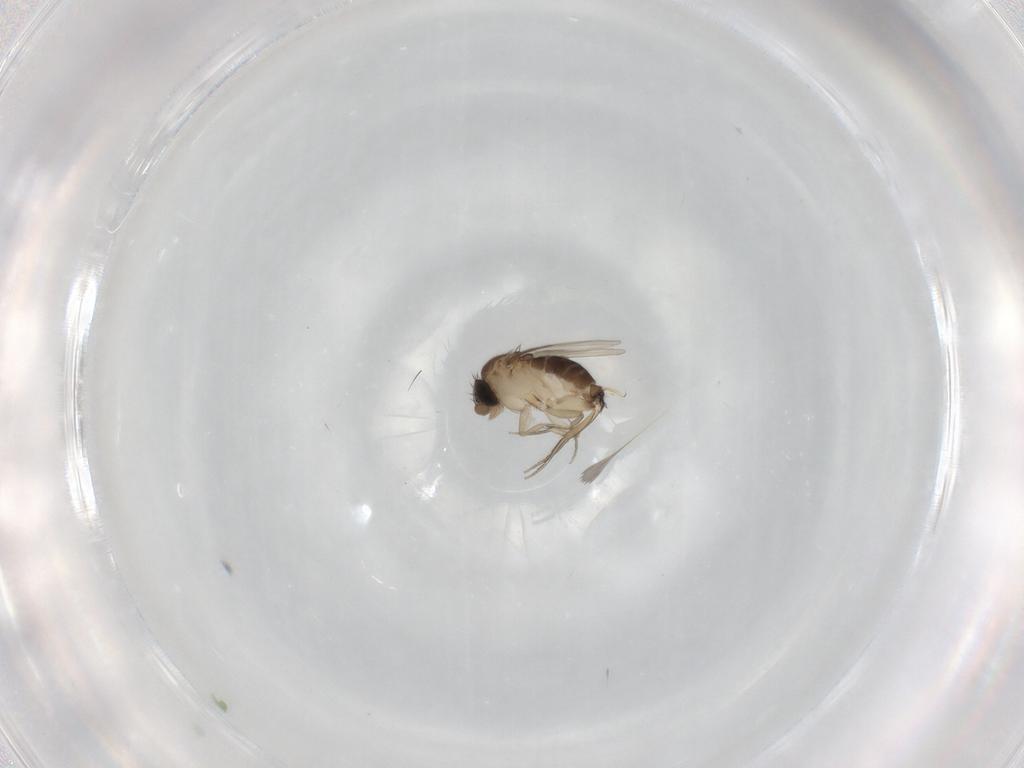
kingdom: Animalia
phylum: Arthropoda
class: Insecta
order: Diptera
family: Phoridae
